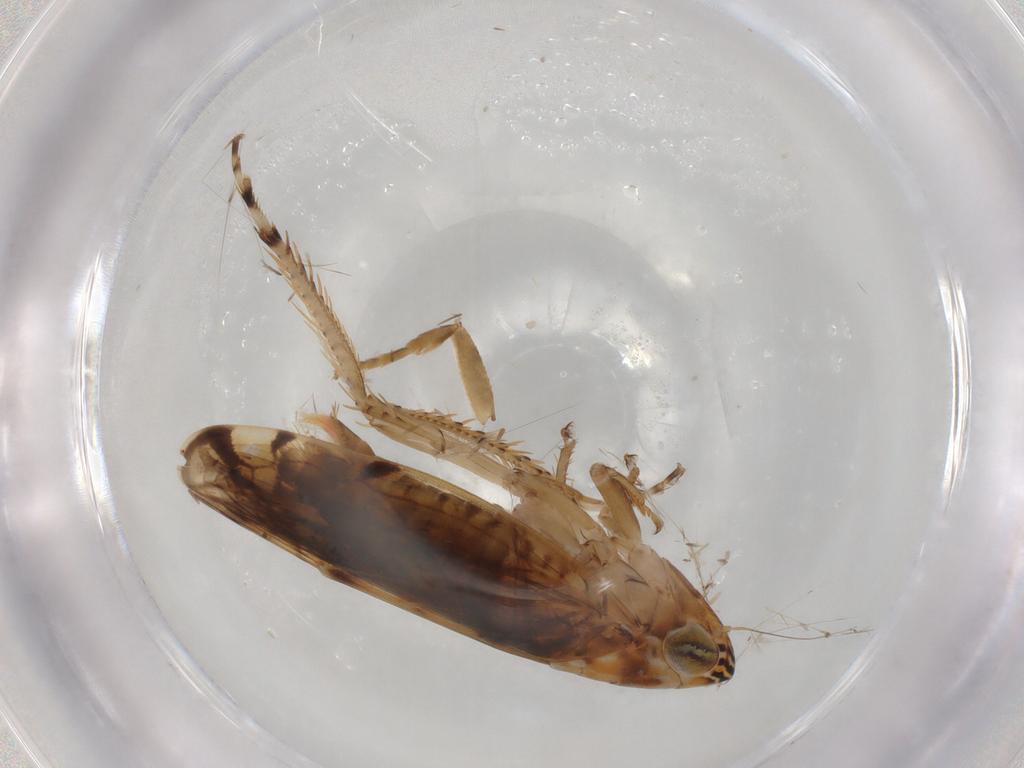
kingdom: Animalia
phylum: Arthropoda
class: Insecta
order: Hemiptera
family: Cicadellidae
